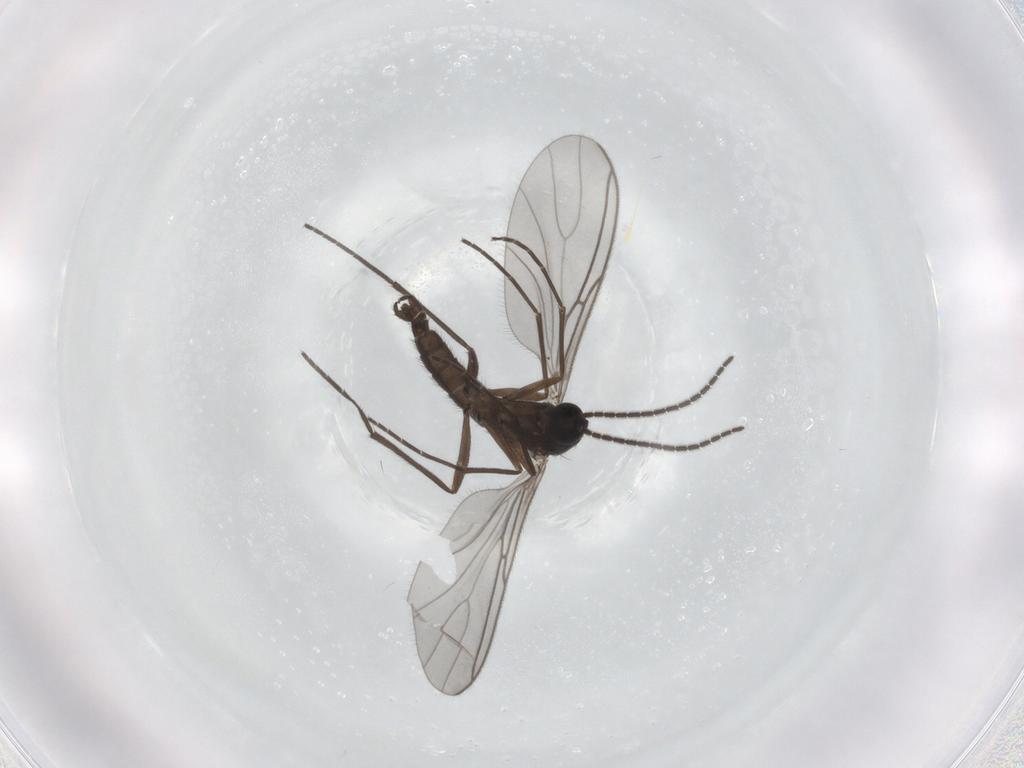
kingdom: Animalia
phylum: Arthropoda
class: Insecta
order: Diptera
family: Sciaridae
